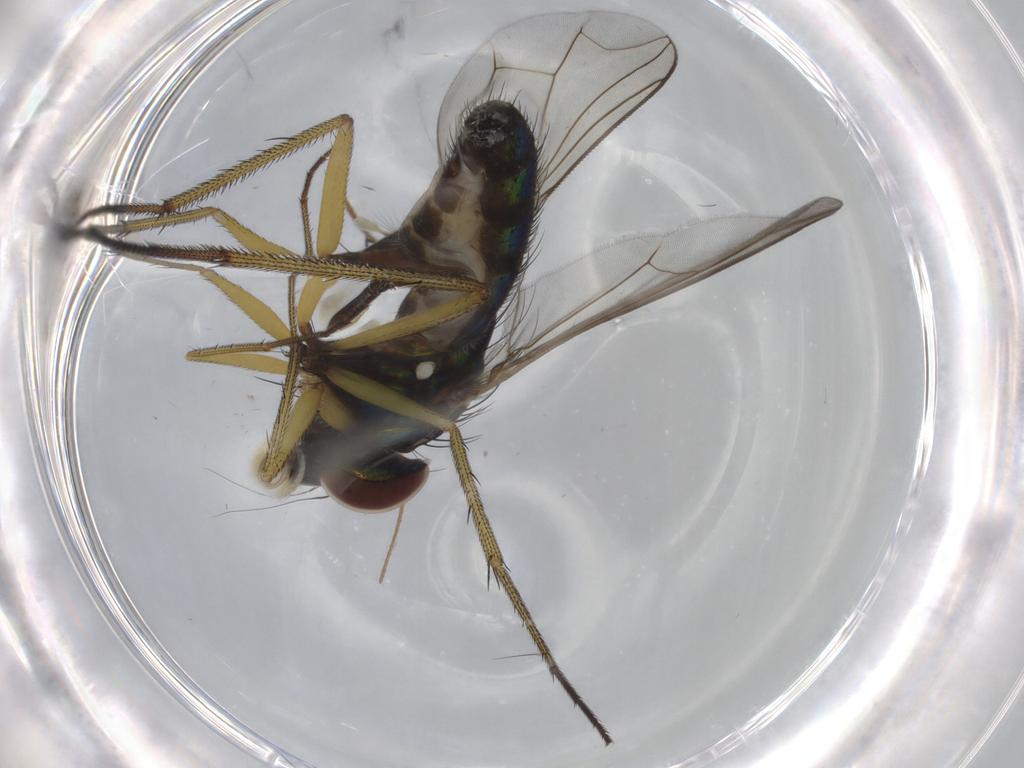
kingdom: Animalia
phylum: Arthropoda
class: Insecta
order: Diptera
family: Dolichopodidae
